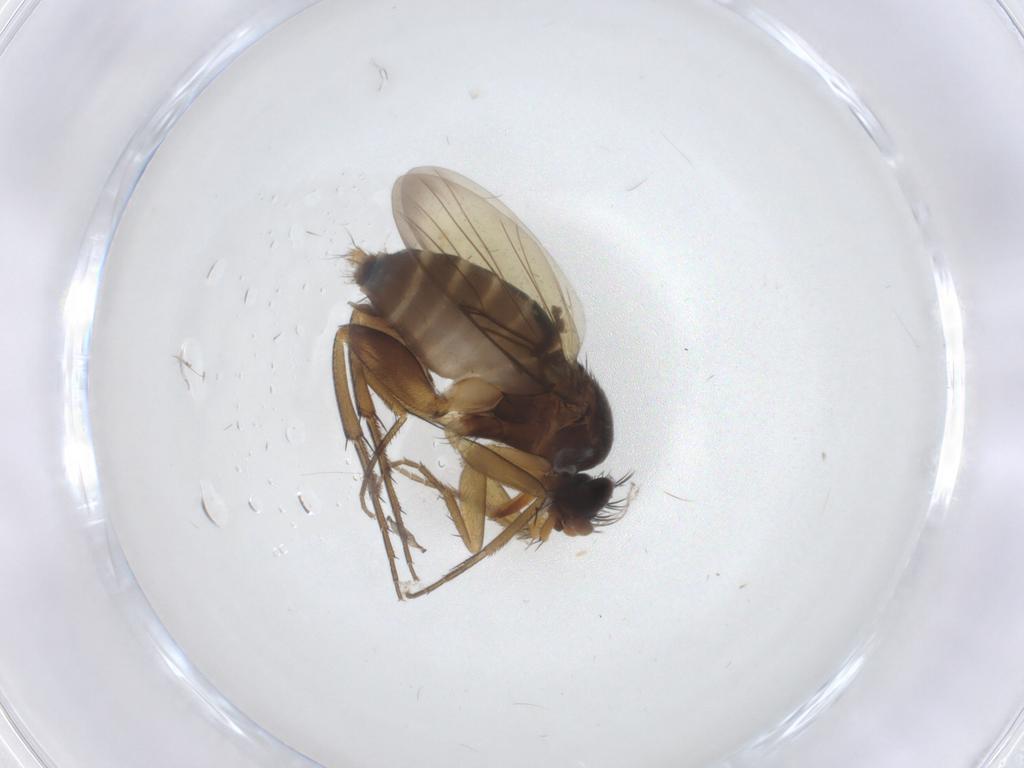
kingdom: Animalia
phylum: Arthropoda
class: Insecta
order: Diptera
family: Phoridae
